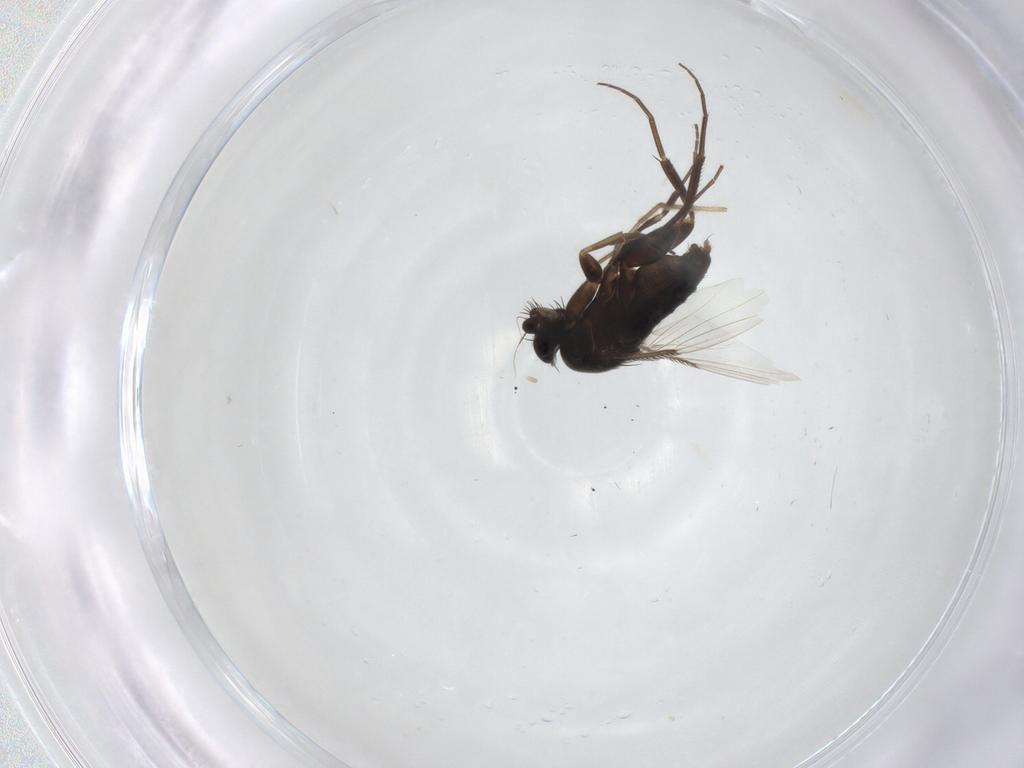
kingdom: Animalia
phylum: Arthropoda
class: Insecta
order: Diptera
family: Phoridae
